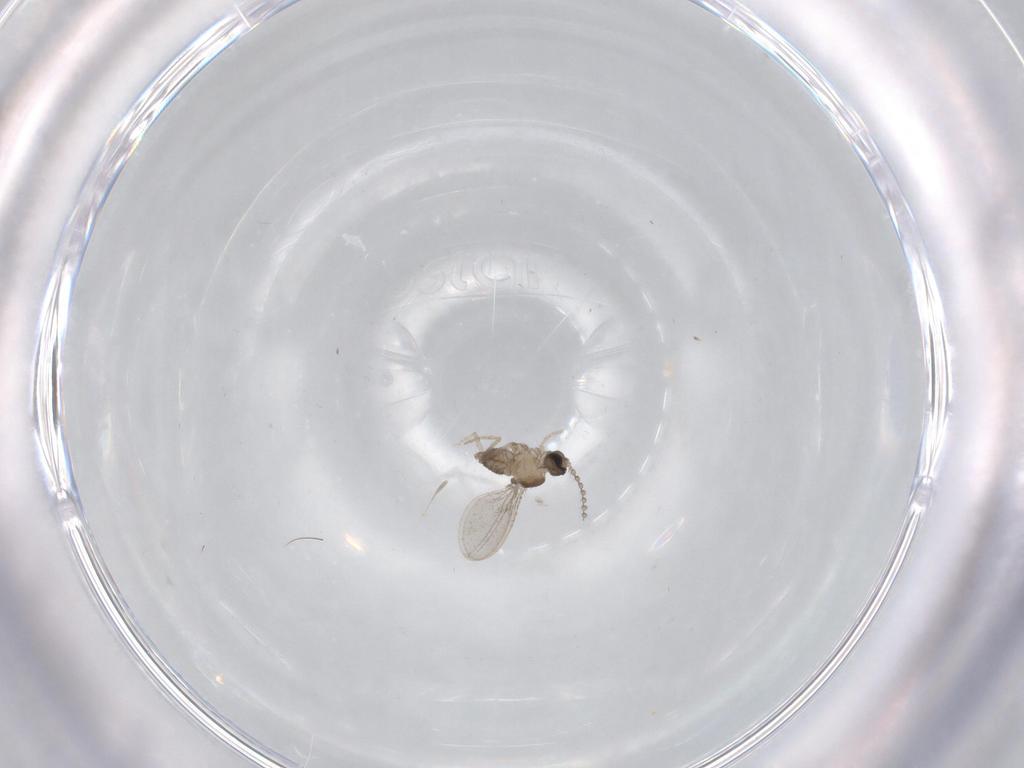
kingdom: Animalia
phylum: Arthropoda
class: Insecta
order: Diptera
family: Cecidomyiidae
